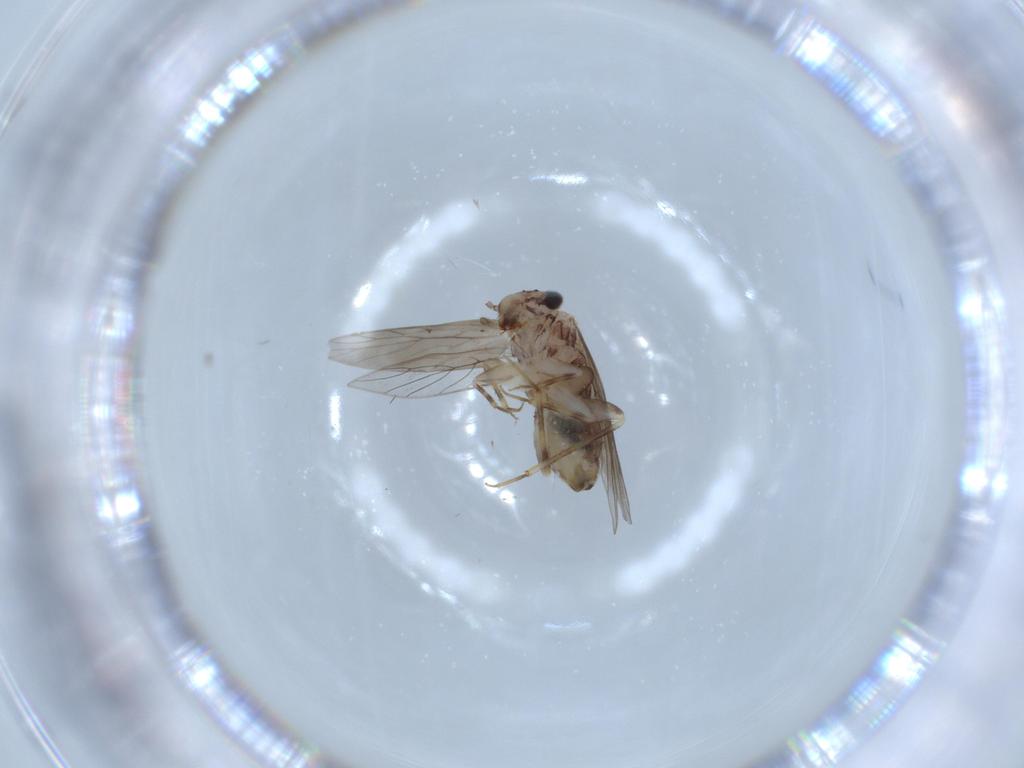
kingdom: Animalia
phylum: Arthropoda
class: Insecta
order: Psocodea
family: Lepidopsocidae
